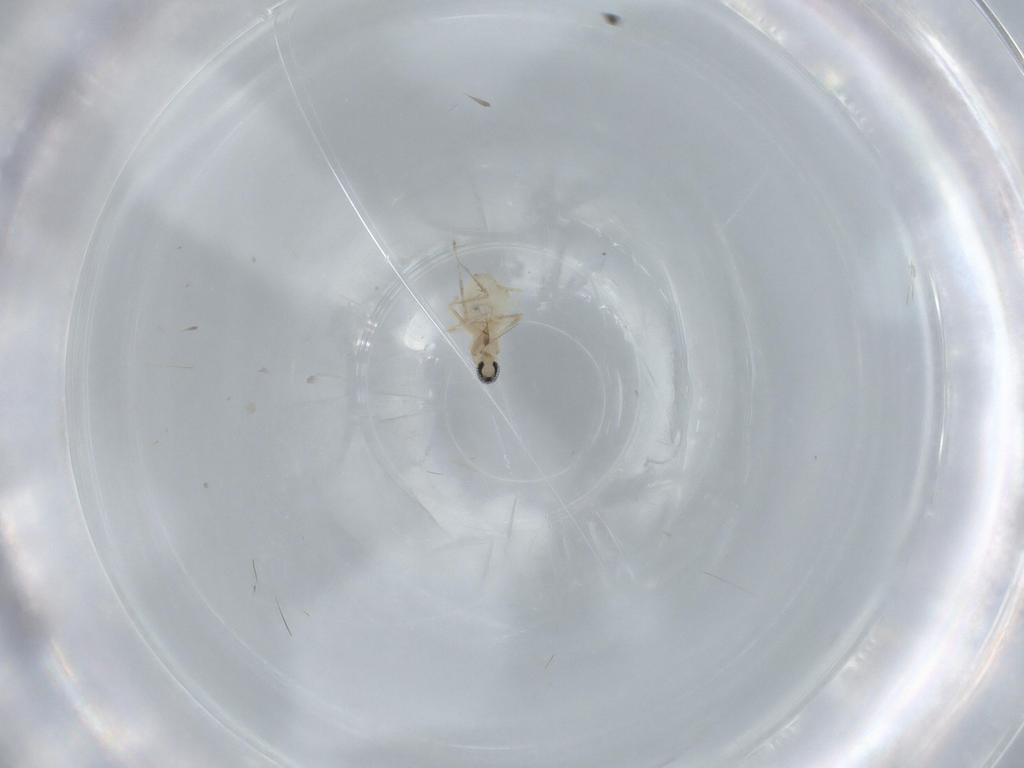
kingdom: Animalia
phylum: Arthropoda
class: Insecta
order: Diptera
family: Cecidomyiidae
